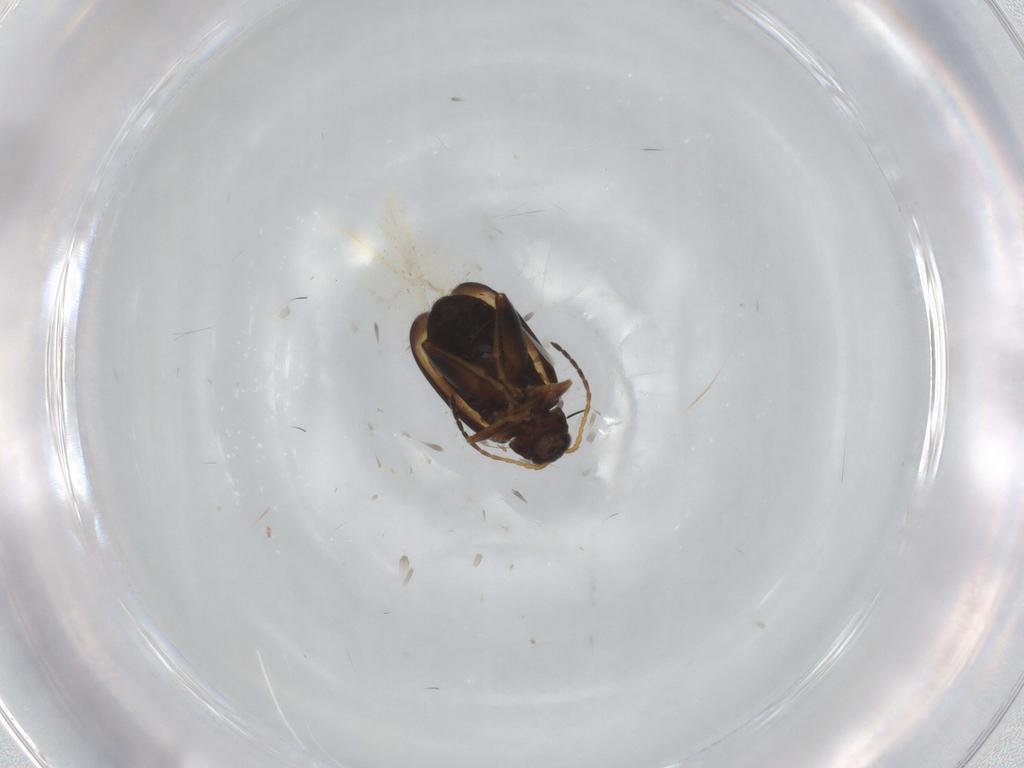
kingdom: Animalia
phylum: Arthropoda
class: Insecta
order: Coleoptera
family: Chrysomelidae
